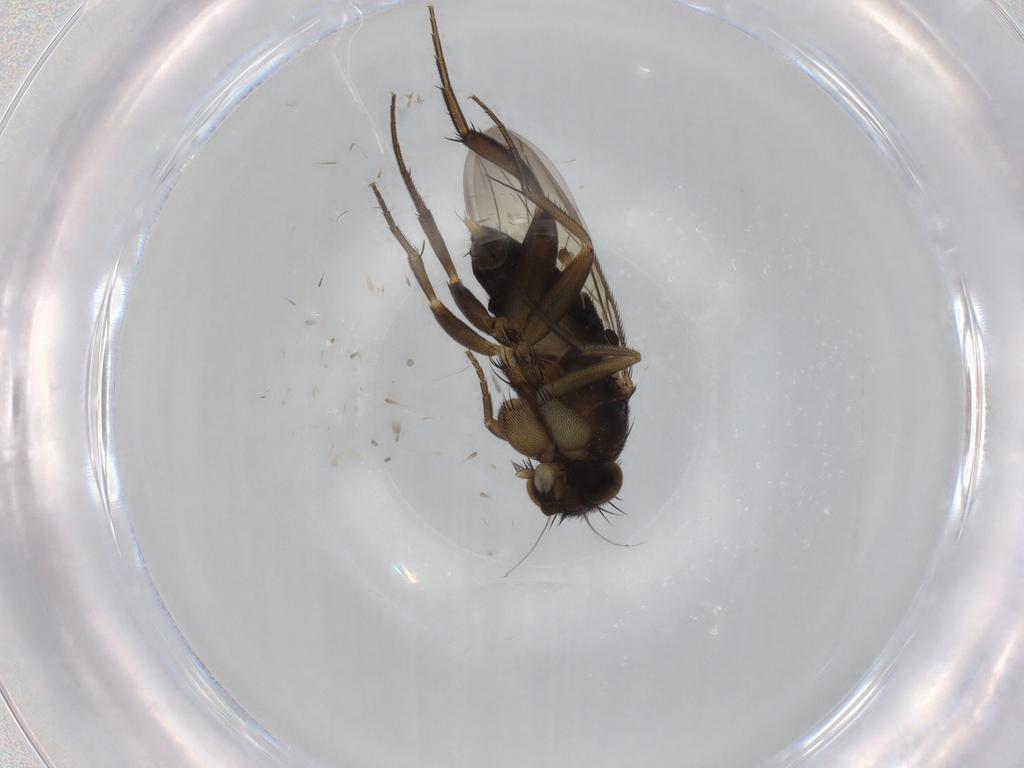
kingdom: Animalia
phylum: Arthropoda
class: Insecta
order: Diptera
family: Phoridae
